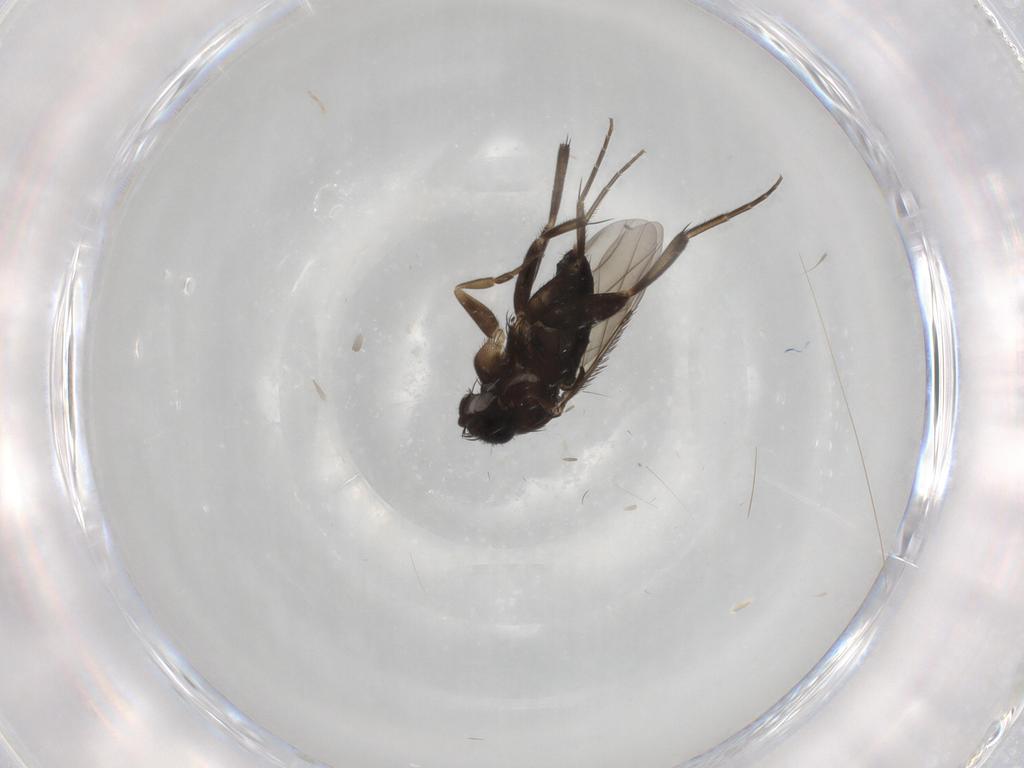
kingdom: Animalia
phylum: Arthropoda
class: Insecta
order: Diptera
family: Phoridae
